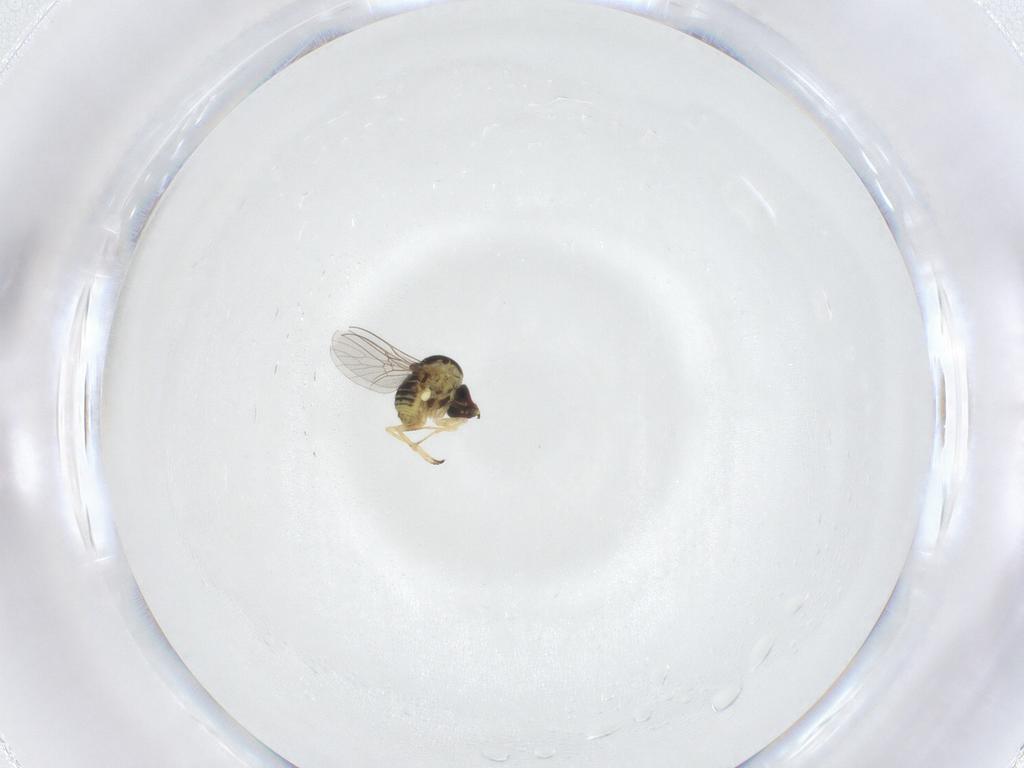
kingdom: Animalia
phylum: Arthropoda
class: Insecta
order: Diptera
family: Mythicomyiidae
